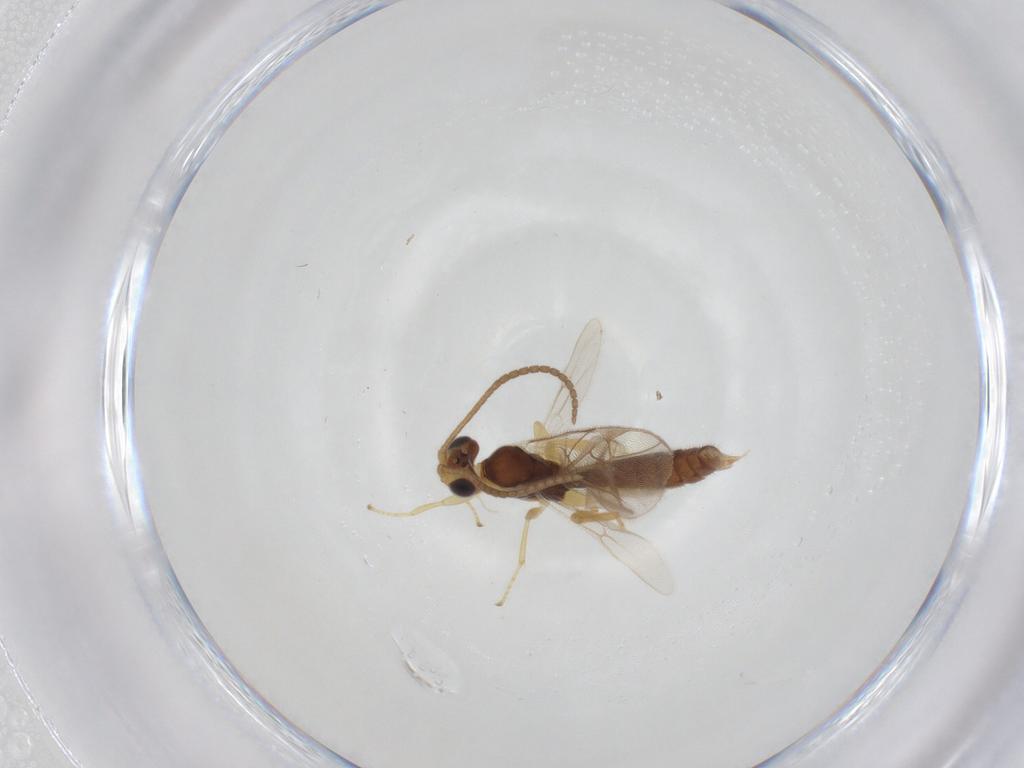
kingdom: Animalia
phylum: Arthropoda
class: Insecta
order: Hymenoptera
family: Ichneumonidae
